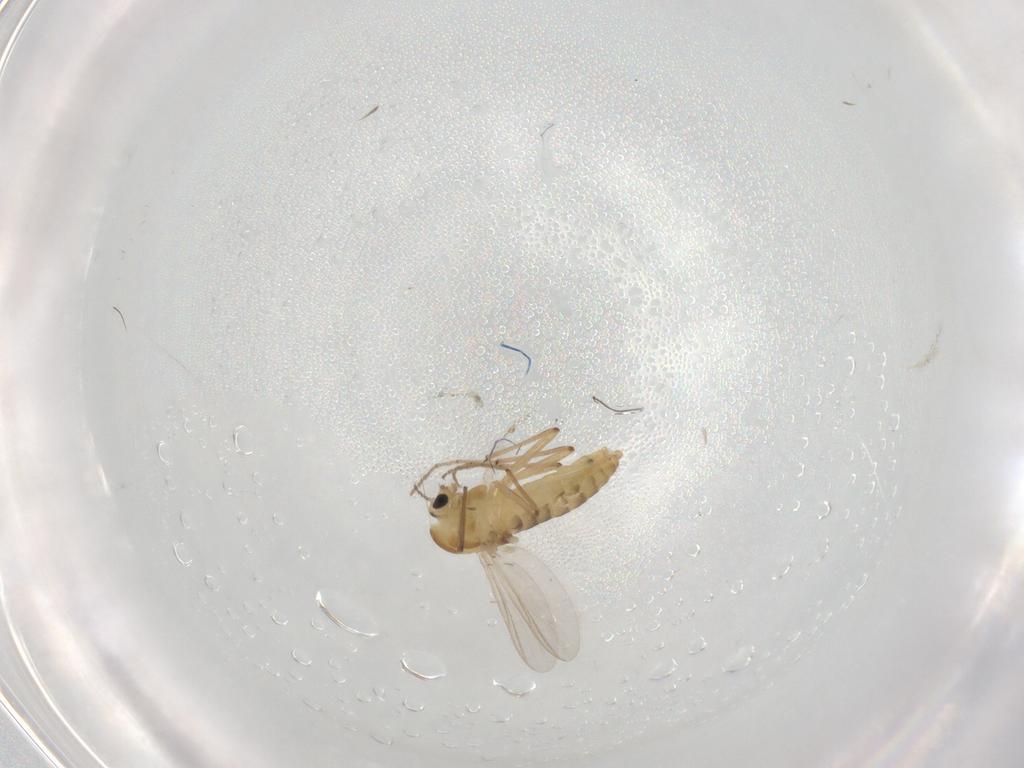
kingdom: Animalia
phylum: Arthropoda
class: Insecta
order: Diptera
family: Chironomidae
